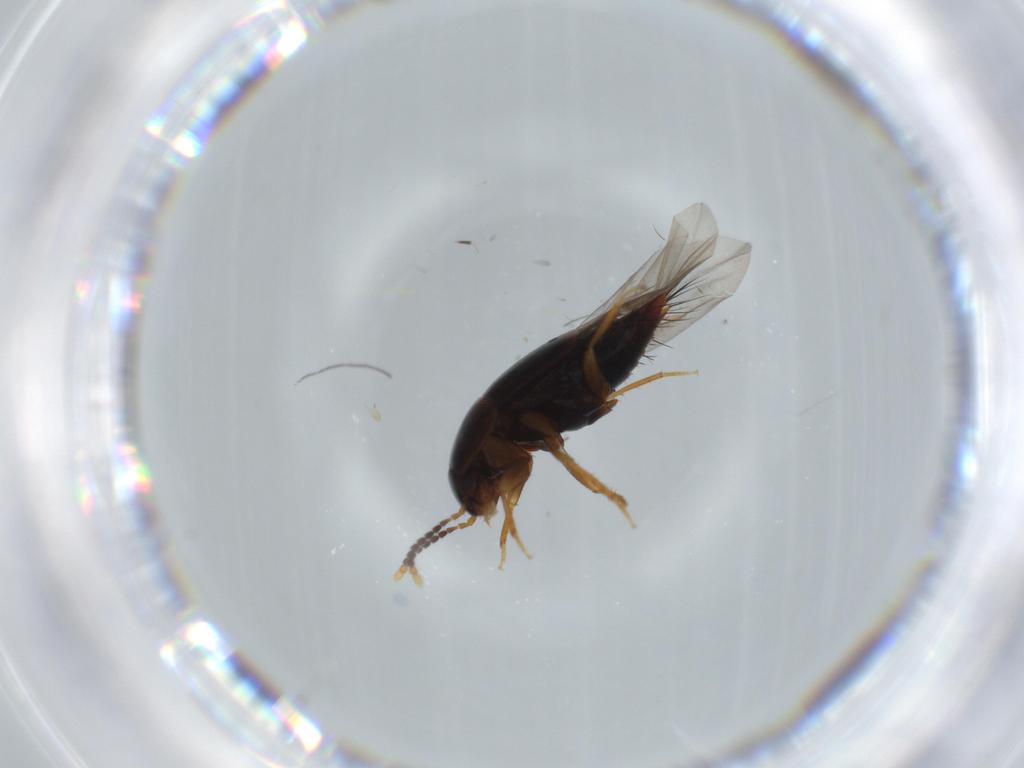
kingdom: Animalia
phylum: Arthropoda
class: Insecta
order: Coleoptera
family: Staphylinidae
